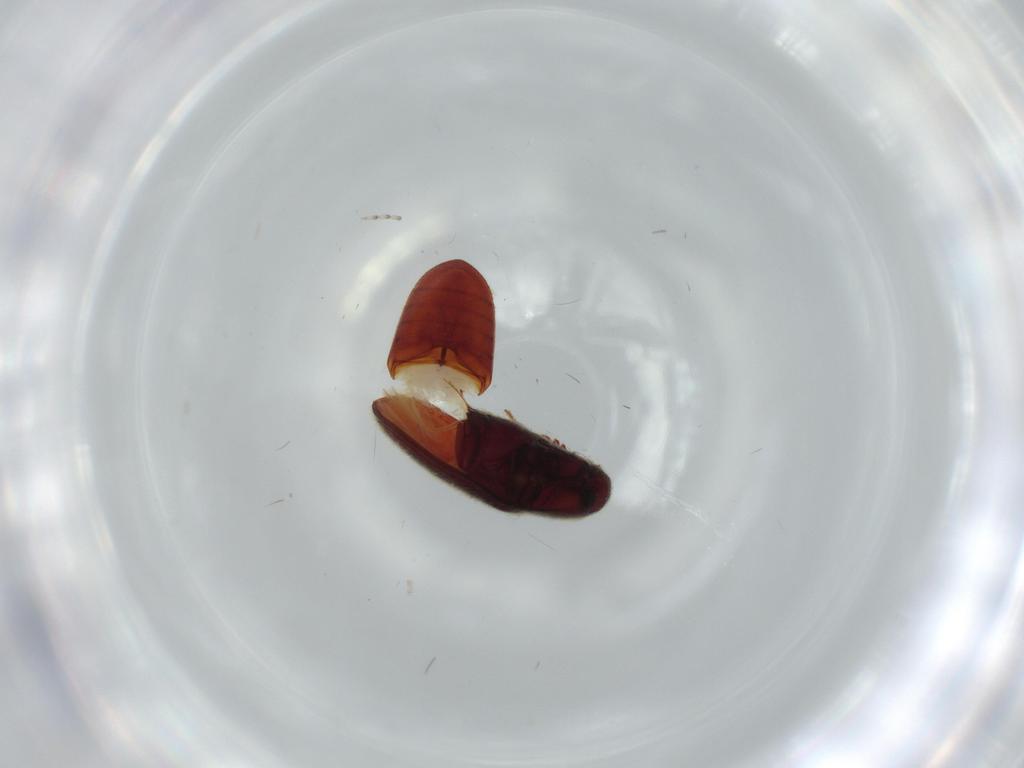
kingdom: Animalia
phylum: Arthropoda
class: Insecta
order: Coleoptera
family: Throscidae
